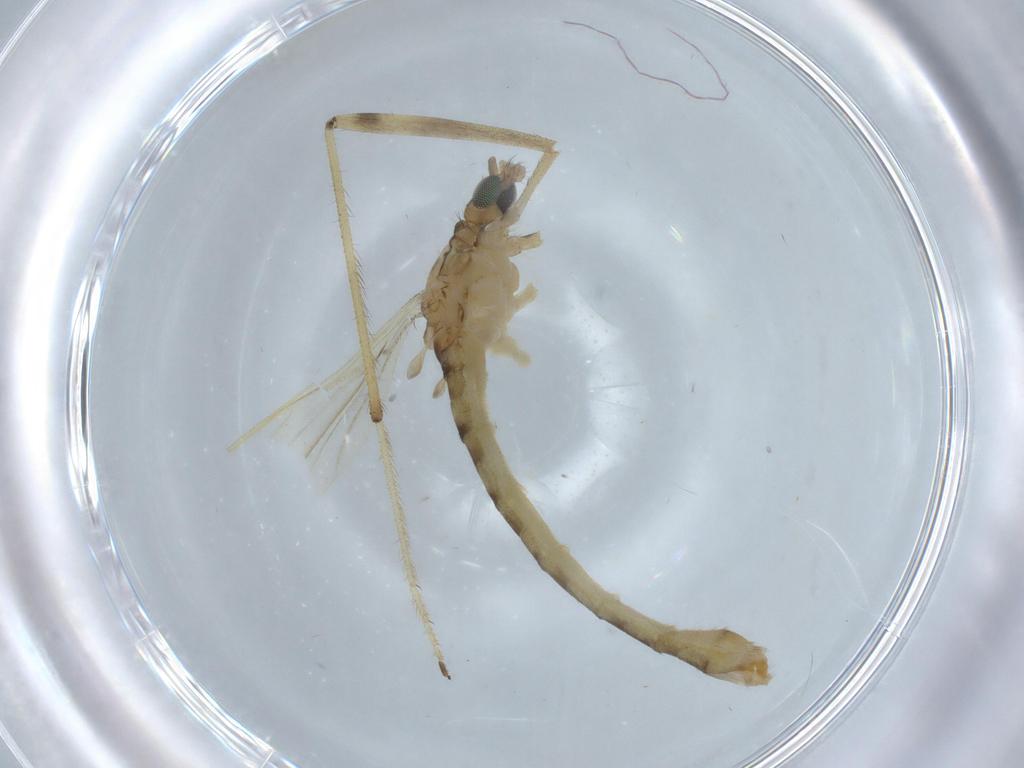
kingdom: Animalia
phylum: Arthropoda
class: Insecta
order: Diptera
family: Limoniidae
